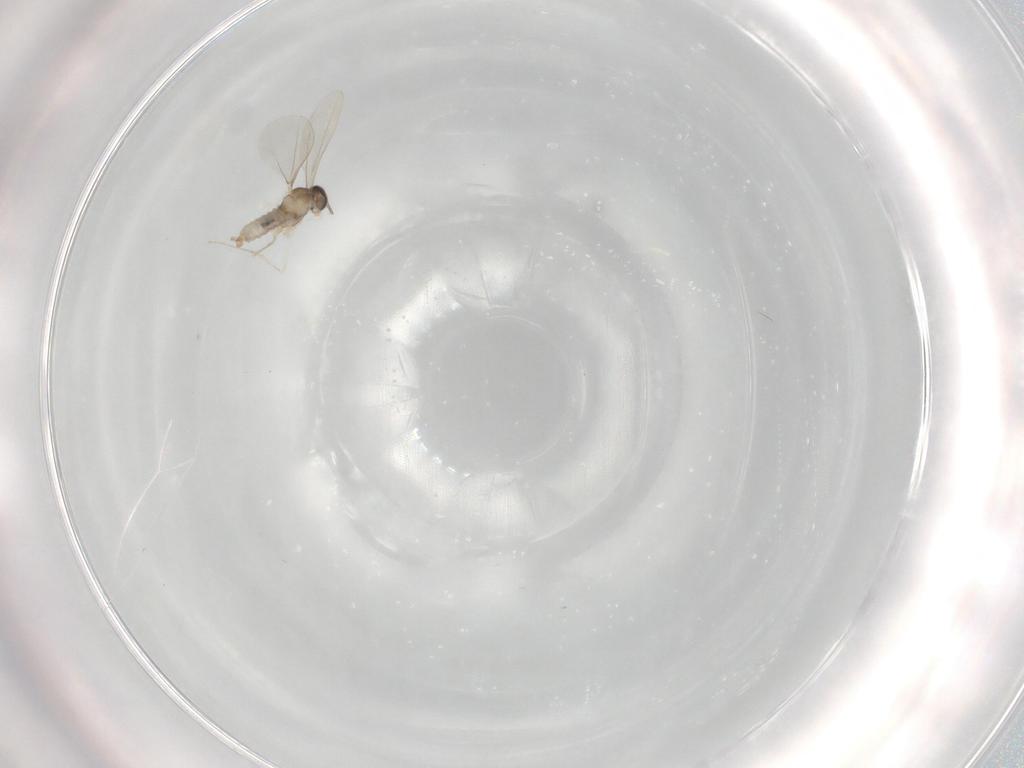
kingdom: Animalia
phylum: Arthropoda
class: Insecta
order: Diptera
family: Cecidomyiidae
